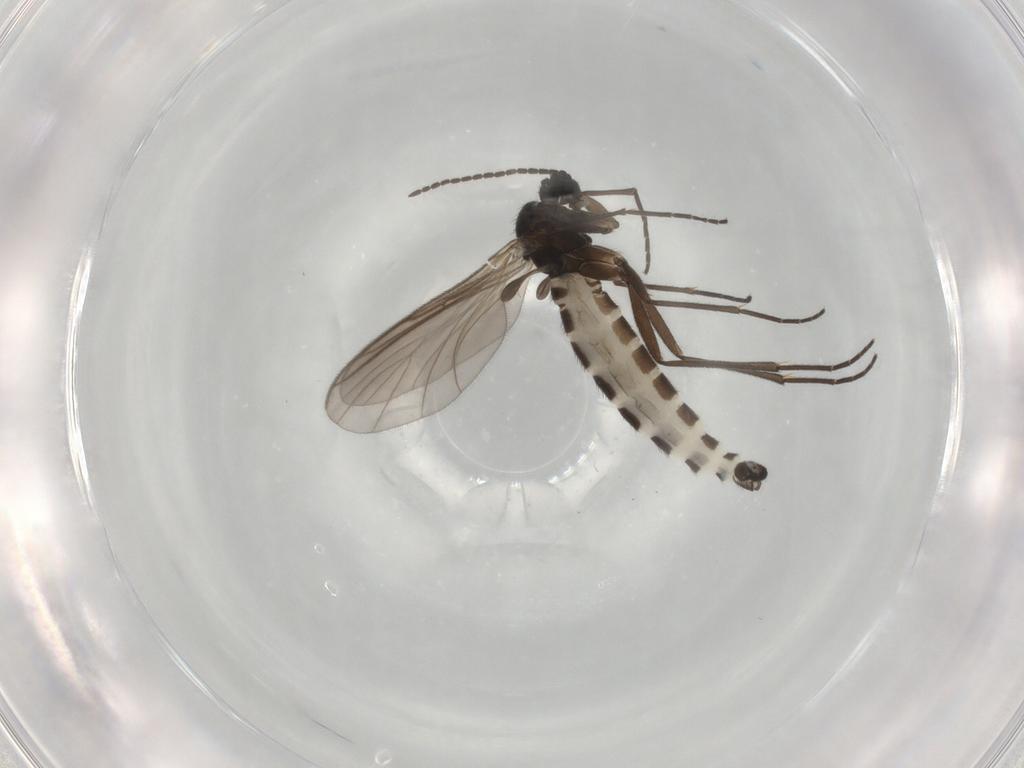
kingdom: Animalia
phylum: Arthropoda
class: Insecta
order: Diptera
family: Sciaridae
